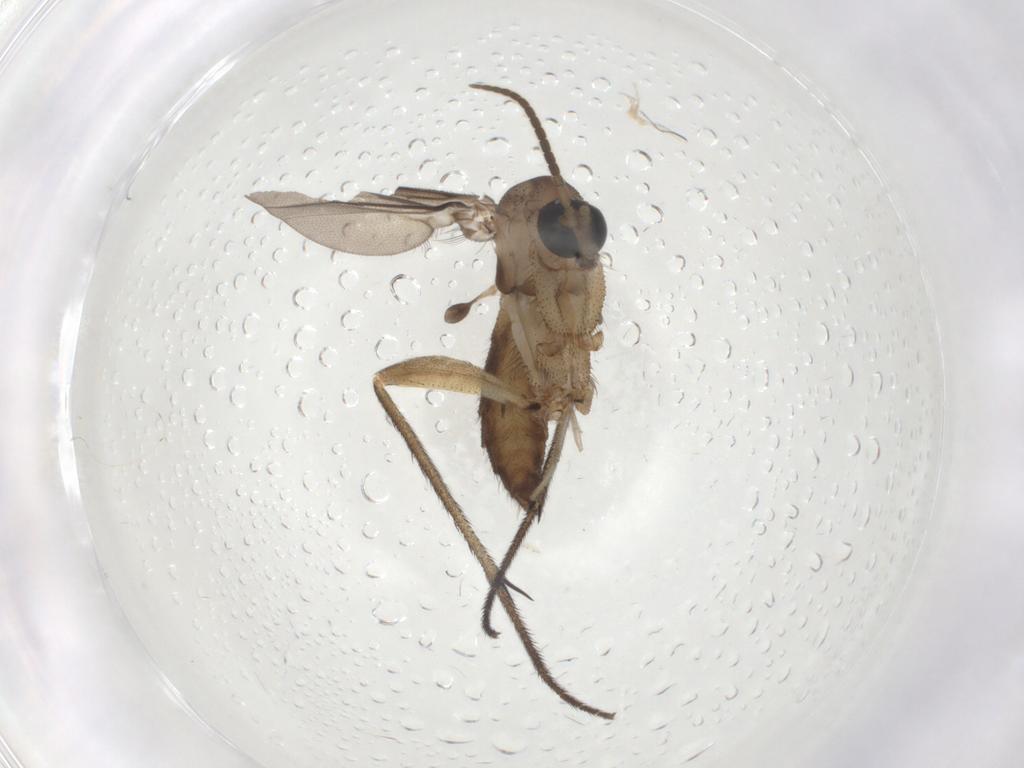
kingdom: Animalia
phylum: Arthropoda
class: Insecta
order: Diptera
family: Diadocidiidae
